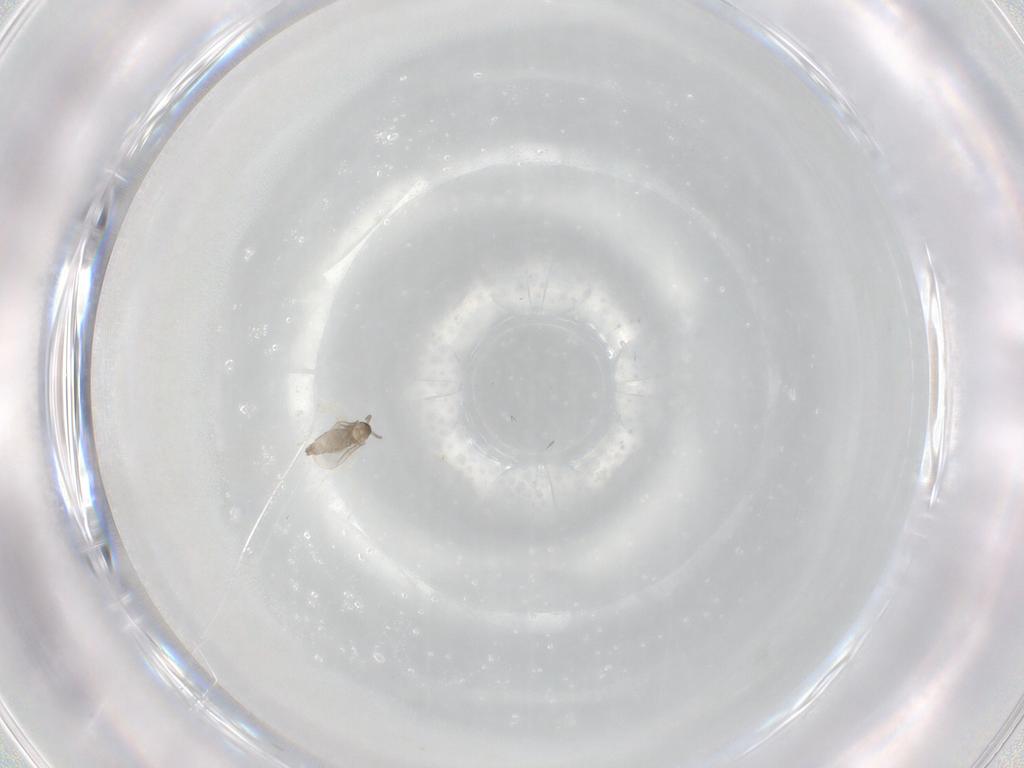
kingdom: Animalia
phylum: Arthropoda
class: Insecta
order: Diptera
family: Cecidomyiidae
